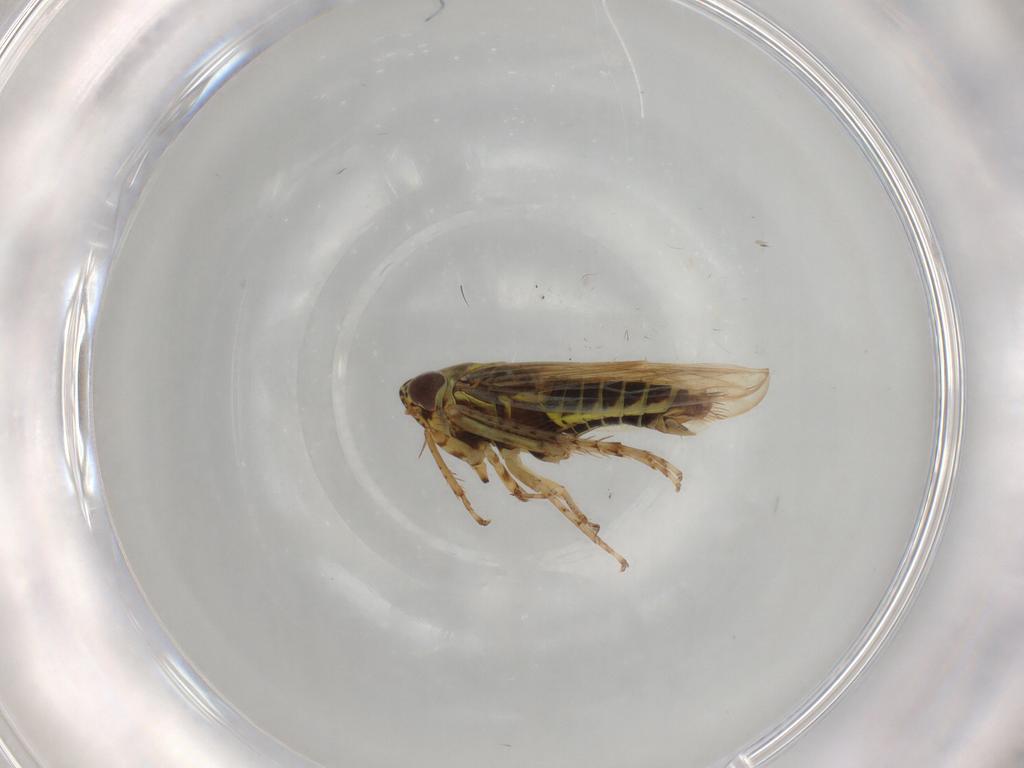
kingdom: Animalia
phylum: Arthropoda
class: Insecta
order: Hemiptera
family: Cicadellidae
